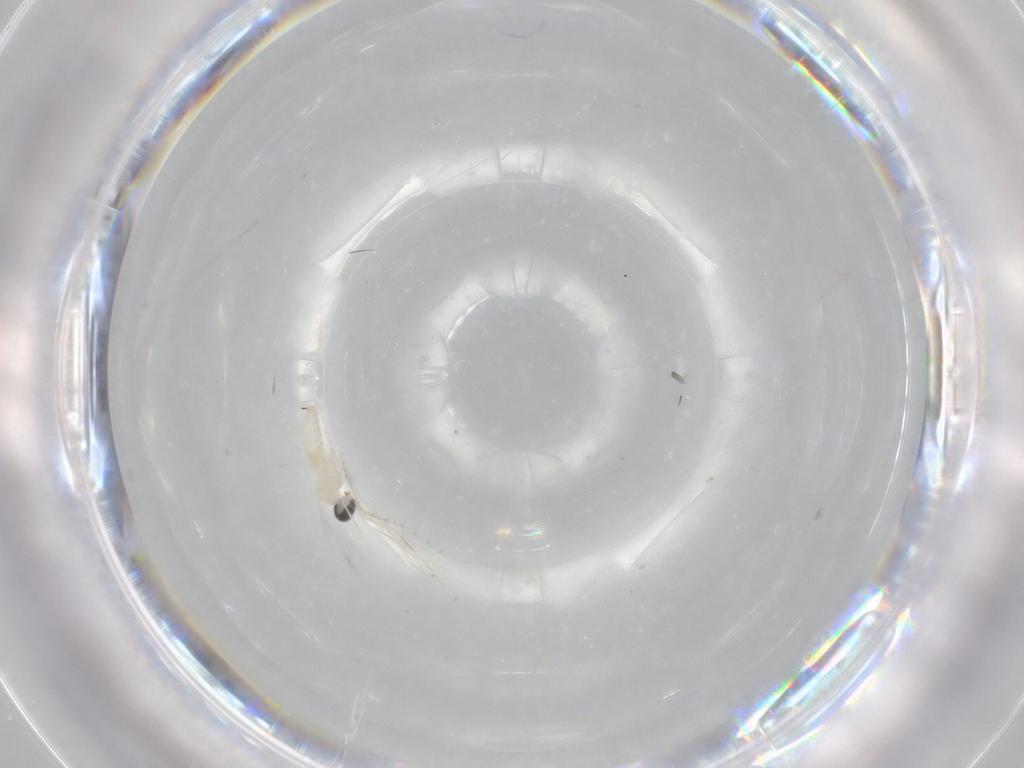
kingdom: Animalia
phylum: Arthropoda
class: Insecta
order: Diptera
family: Cecidomyiidae
